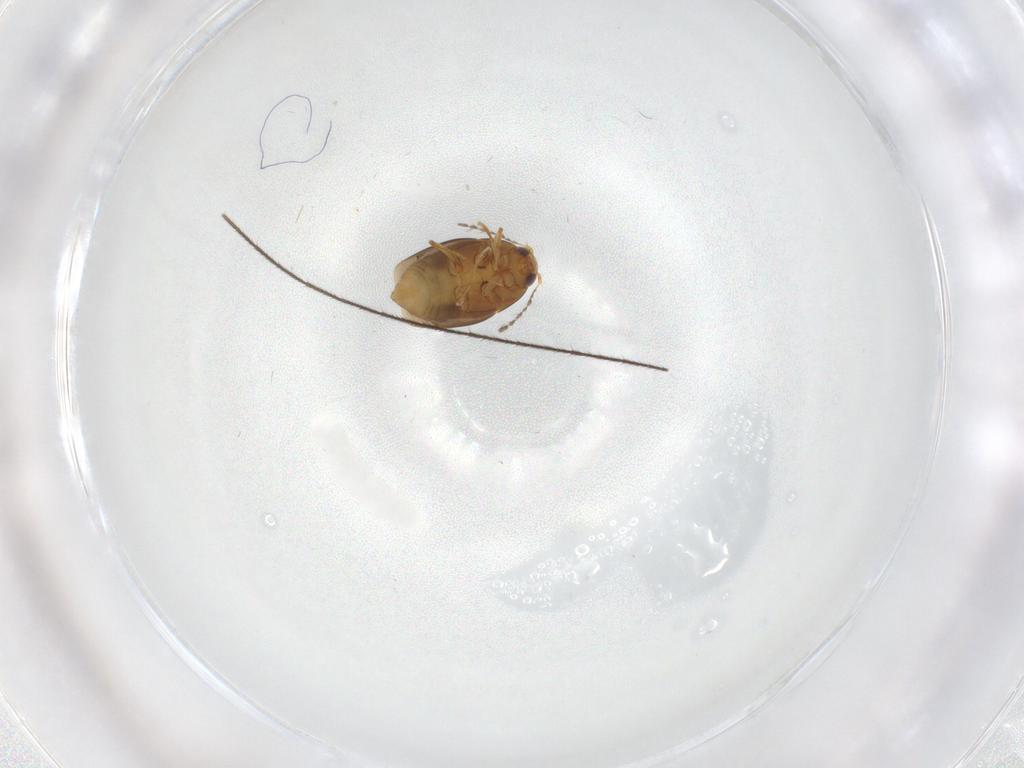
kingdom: Animalia
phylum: Arthropoda
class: Insecta
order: Coleoptera
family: Staphylinidae
